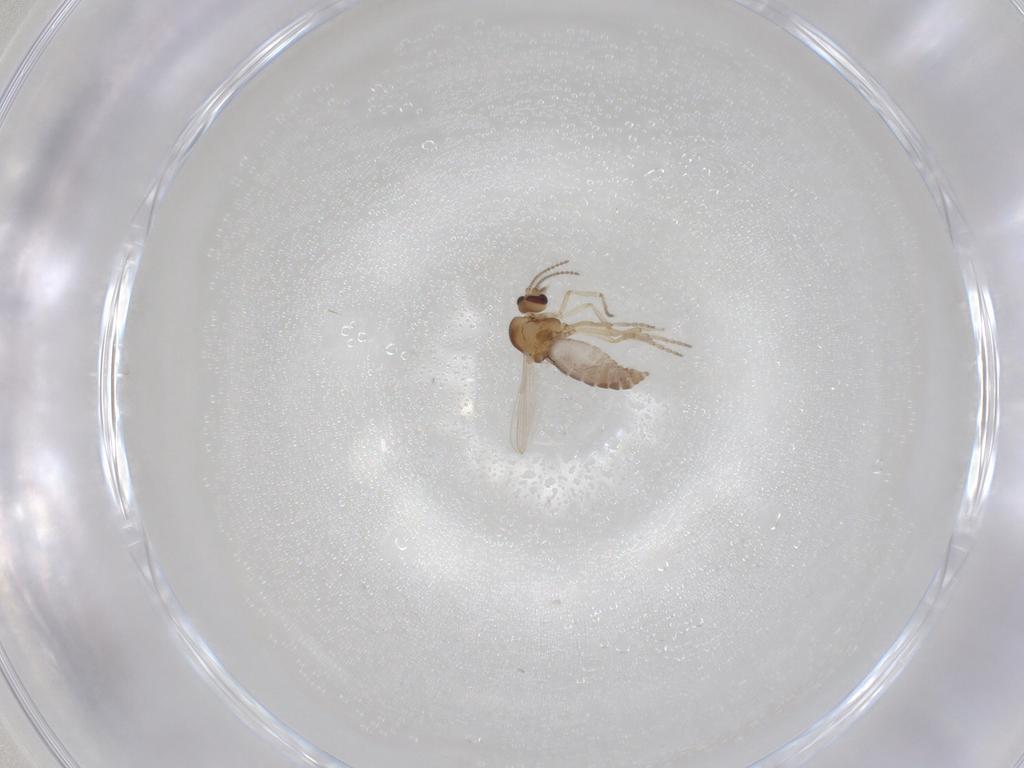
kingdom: Animalia
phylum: Arthropoda
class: Insecta
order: Diptera
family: Ceratopogonidae
